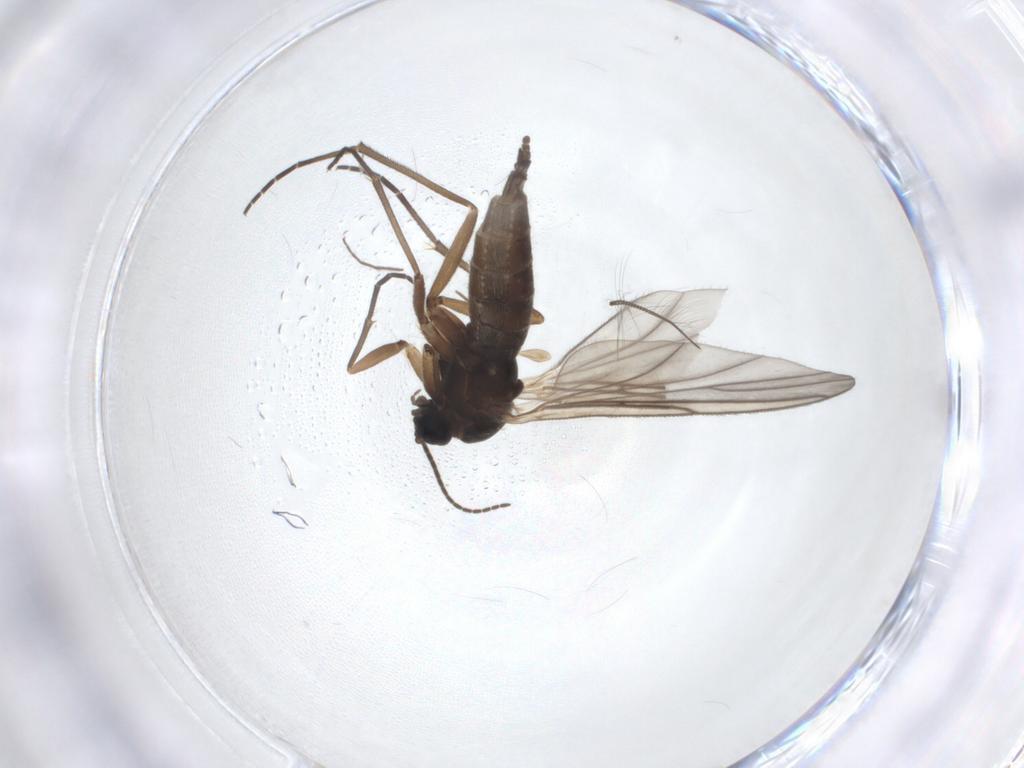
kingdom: Animalia
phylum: Arthropoda
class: Insecta
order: Diptera
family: Sciaridae
